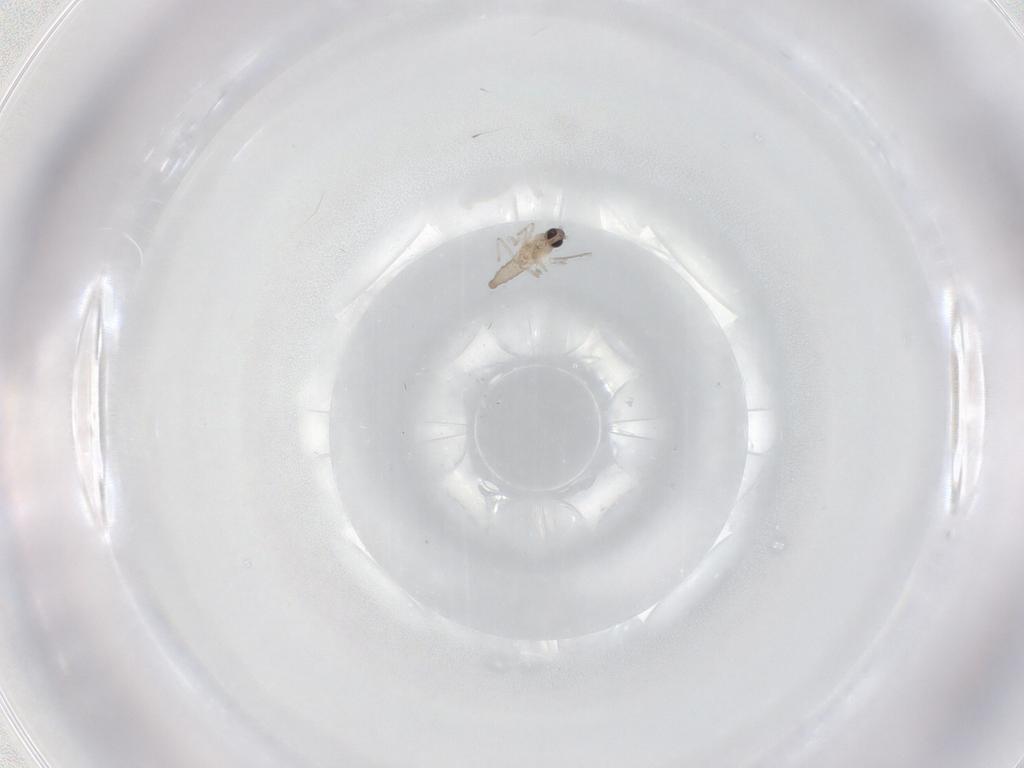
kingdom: Animalia
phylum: Arthropoda
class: Insecta
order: Diptera
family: Cecidomyiidae
